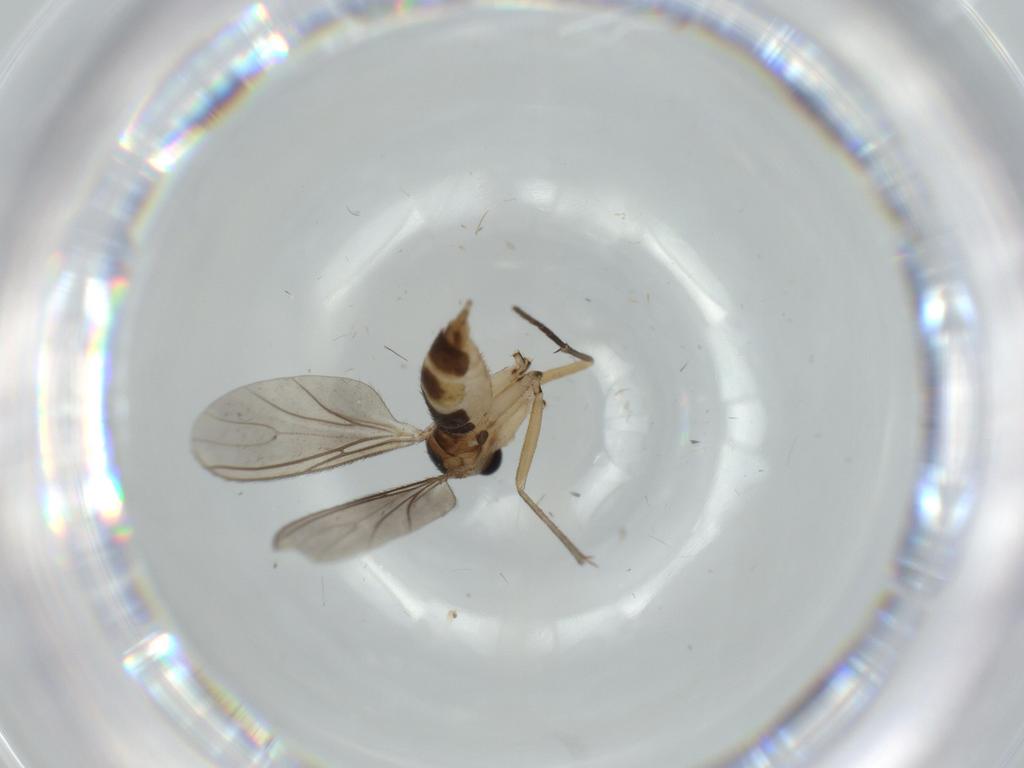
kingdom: Animalia
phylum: Arthropoda
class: Insecta
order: Diptera
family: Sciaridae
